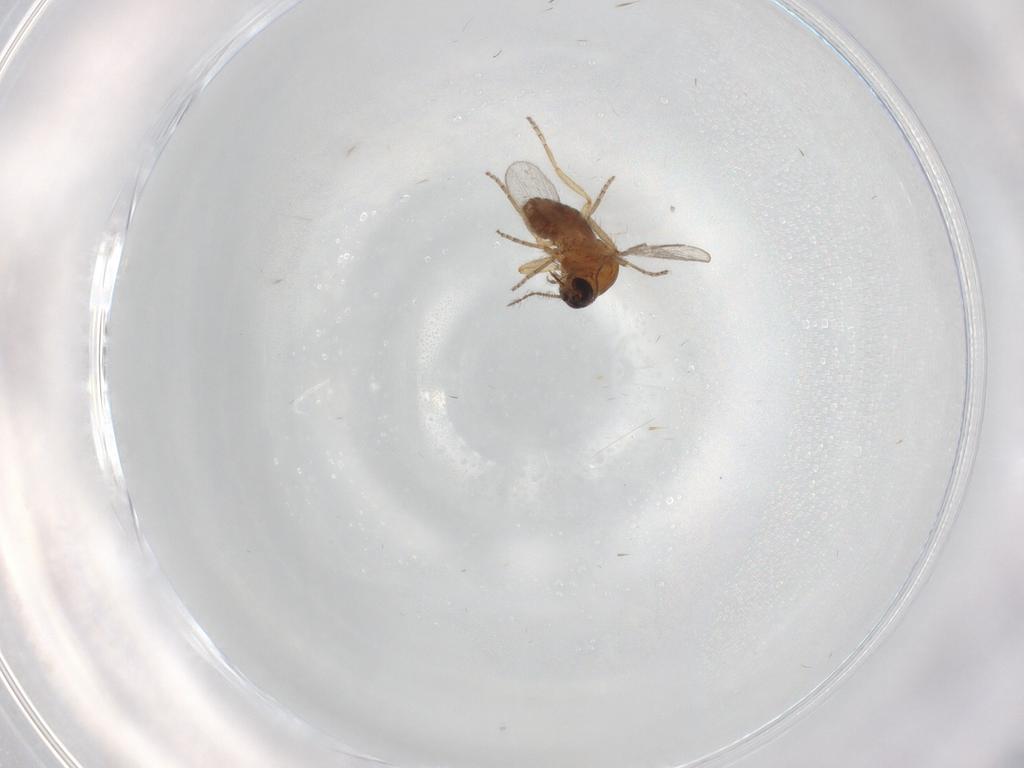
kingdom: Animalia
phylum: Arthropoda
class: Insecta
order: Diptera
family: Ceratopogonidae
